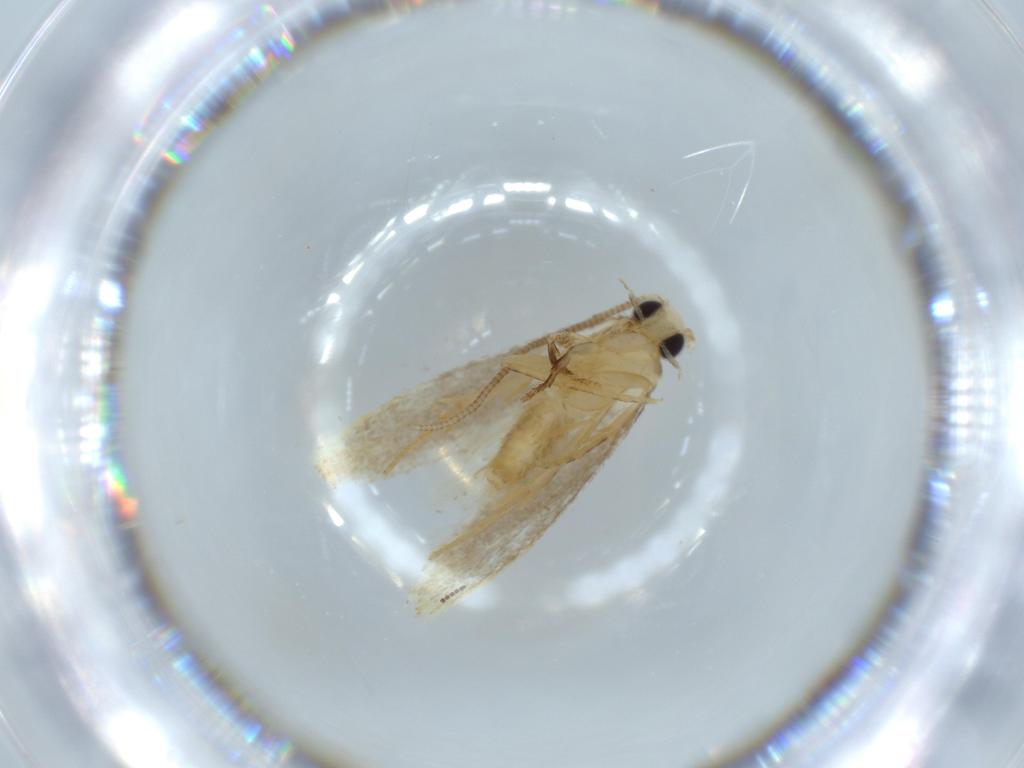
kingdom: Animalia
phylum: Arthropoda
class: Insecta
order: Lepidoptera
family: Tineidae
